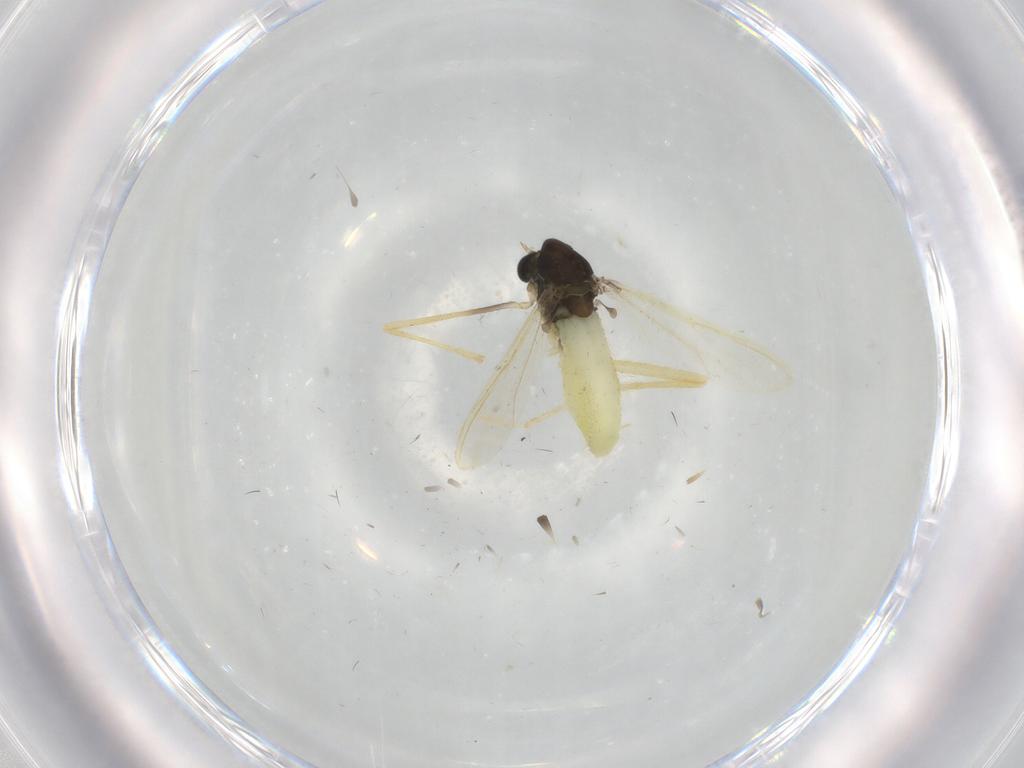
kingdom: Animalia
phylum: Arthropoda
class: Insecta
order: Diptera
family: Chironomidae
